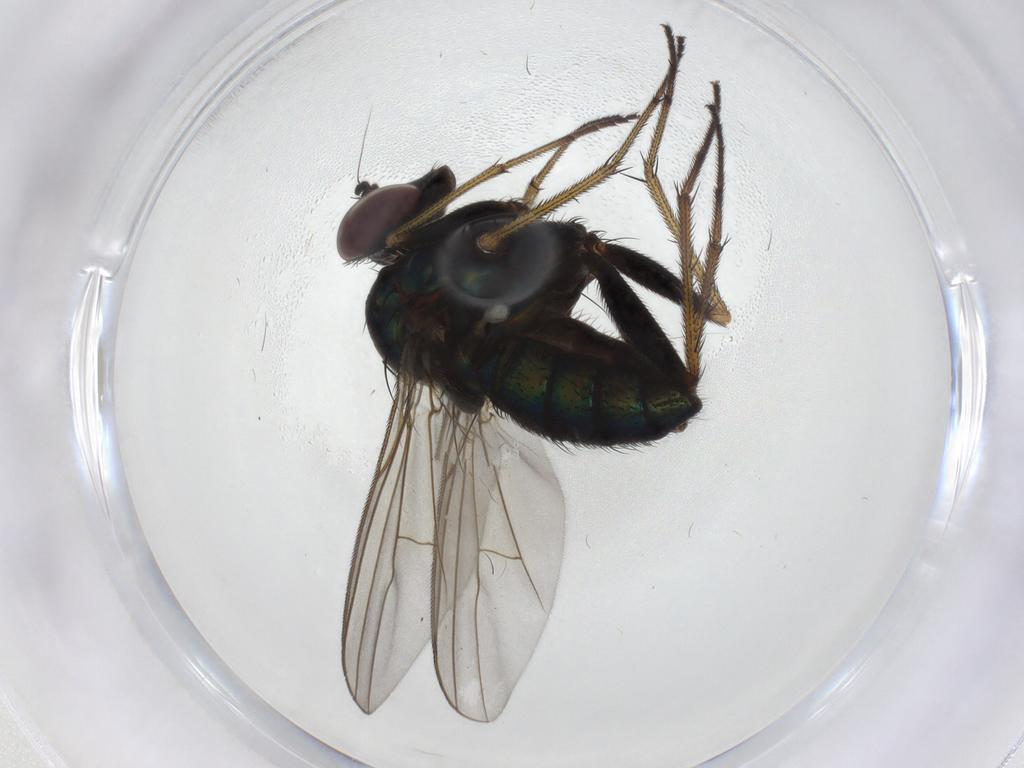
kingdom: Animalia
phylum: Arthropoda
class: Insecta
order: Diptera
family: Dolichopodidae
